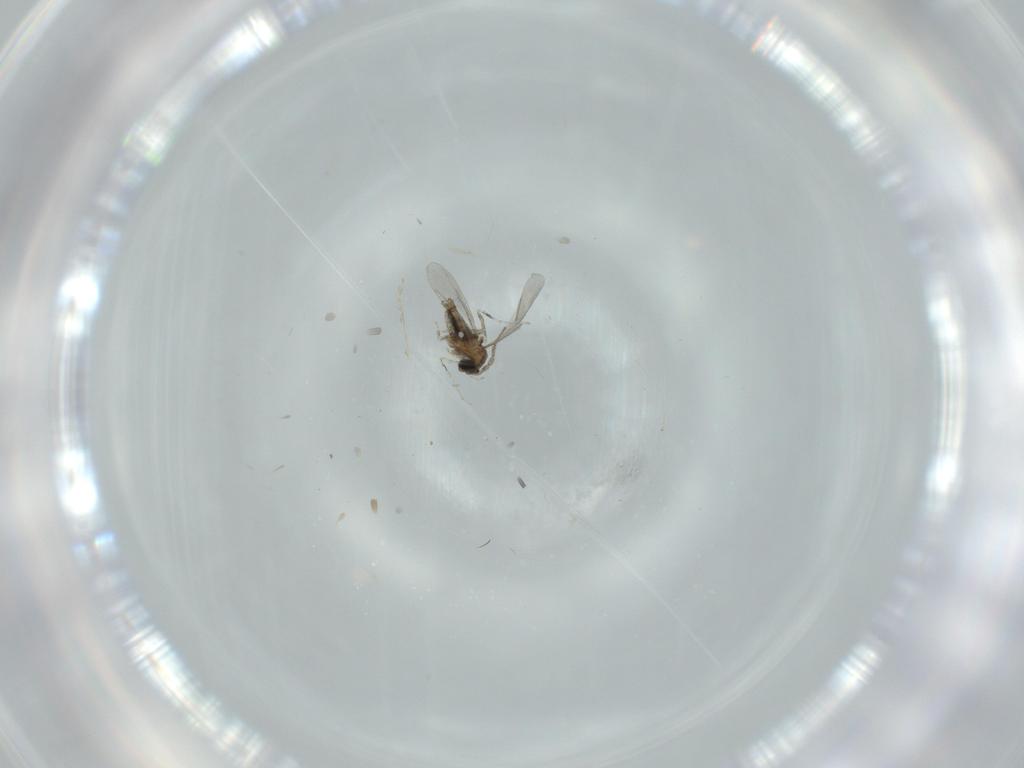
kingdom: Animalia
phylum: Arthropoda
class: Insecta
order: Diptera
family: Cecidomyiidae
